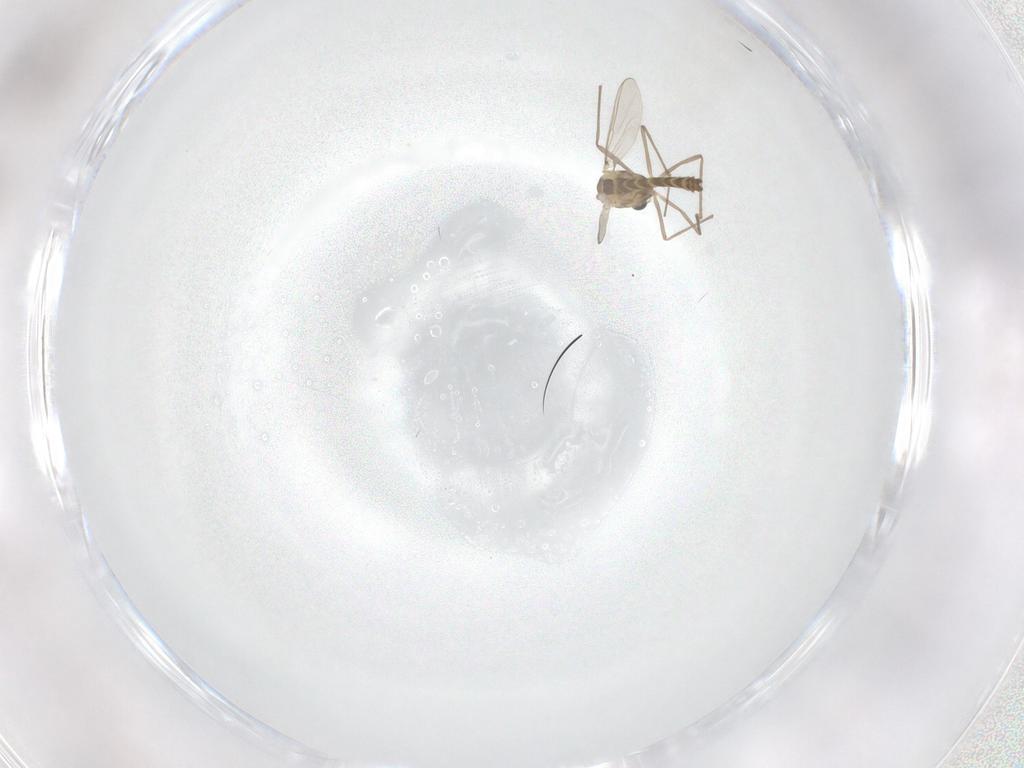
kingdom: Animalia
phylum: Arthropoda
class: Insecta
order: Diptera
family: Chironomidae
